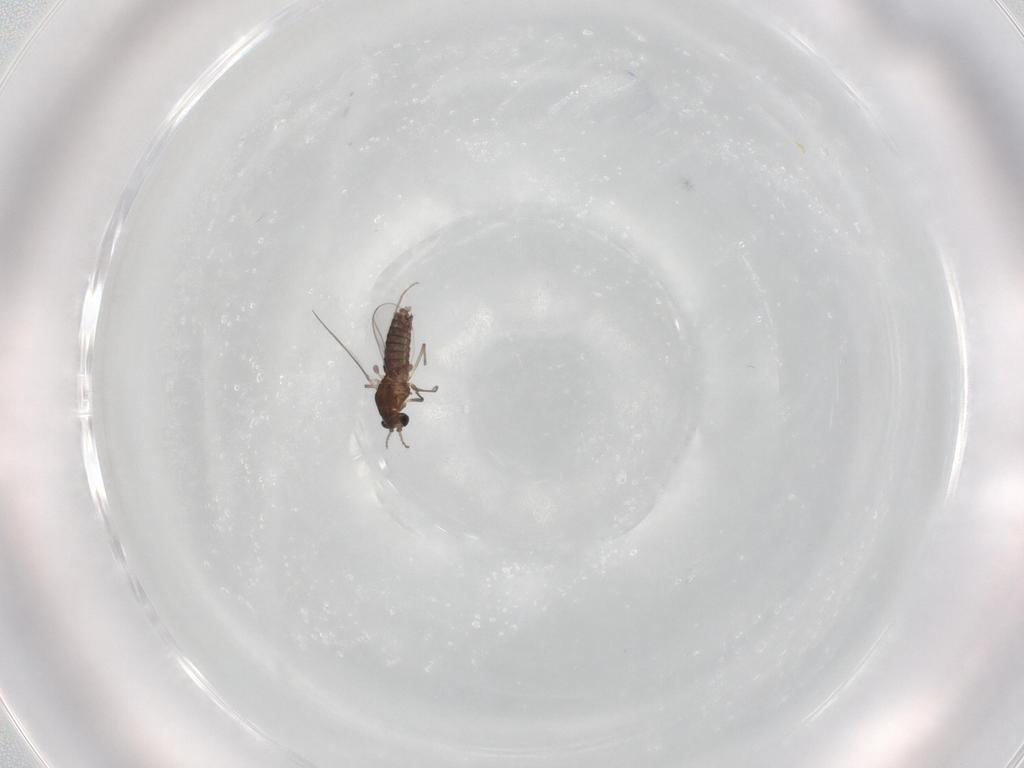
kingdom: Animalia
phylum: Arthropoda
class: Insecta
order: Diptera
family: Chironomidae
